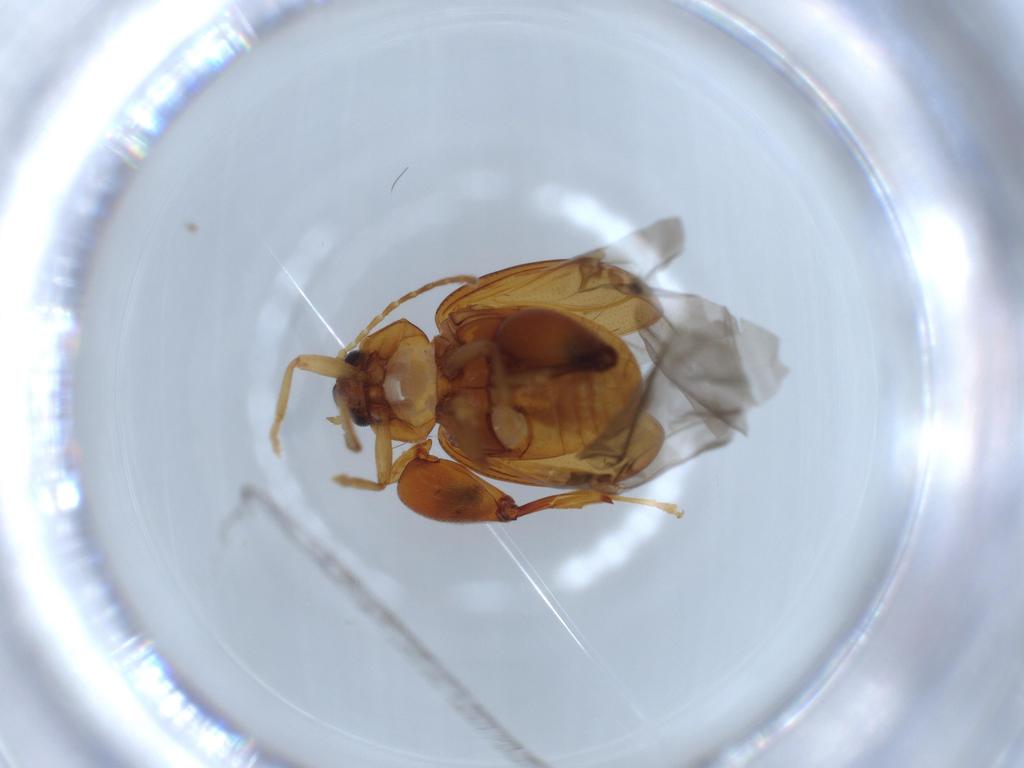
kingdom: Animalia
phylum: Arthropoda
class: Insecta
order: Coleoptera
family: Chrysomelidae
